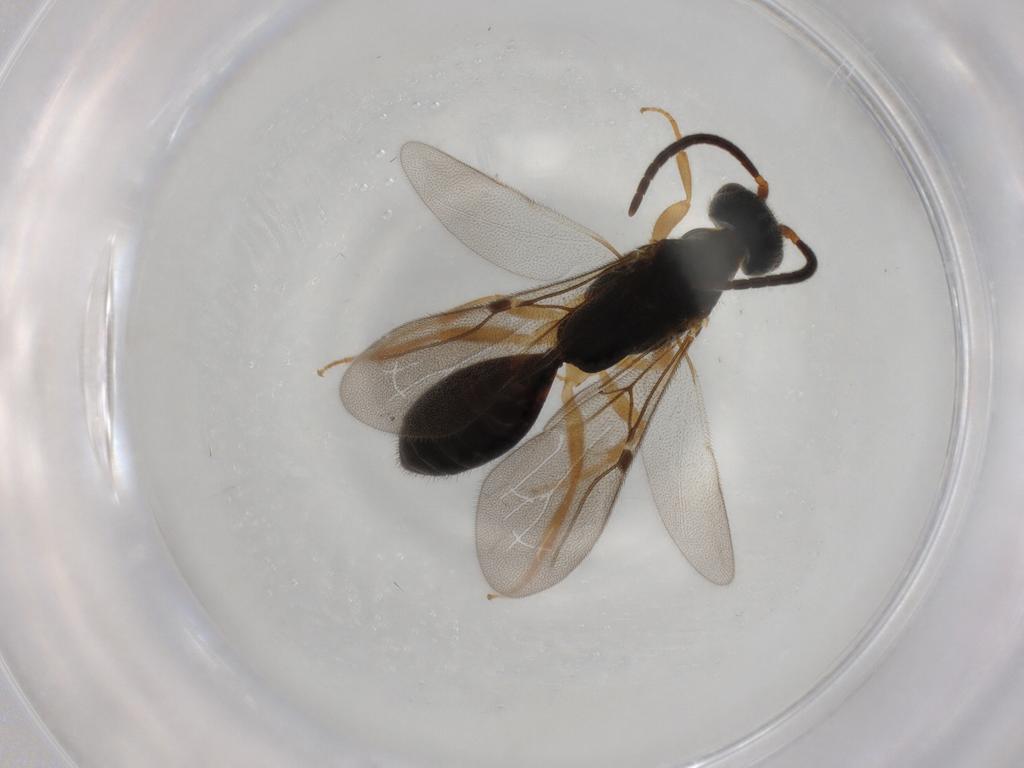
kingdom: Animalia
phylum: Arthropoda
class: Insecta
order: Hymenoptera
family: Bethylidae
